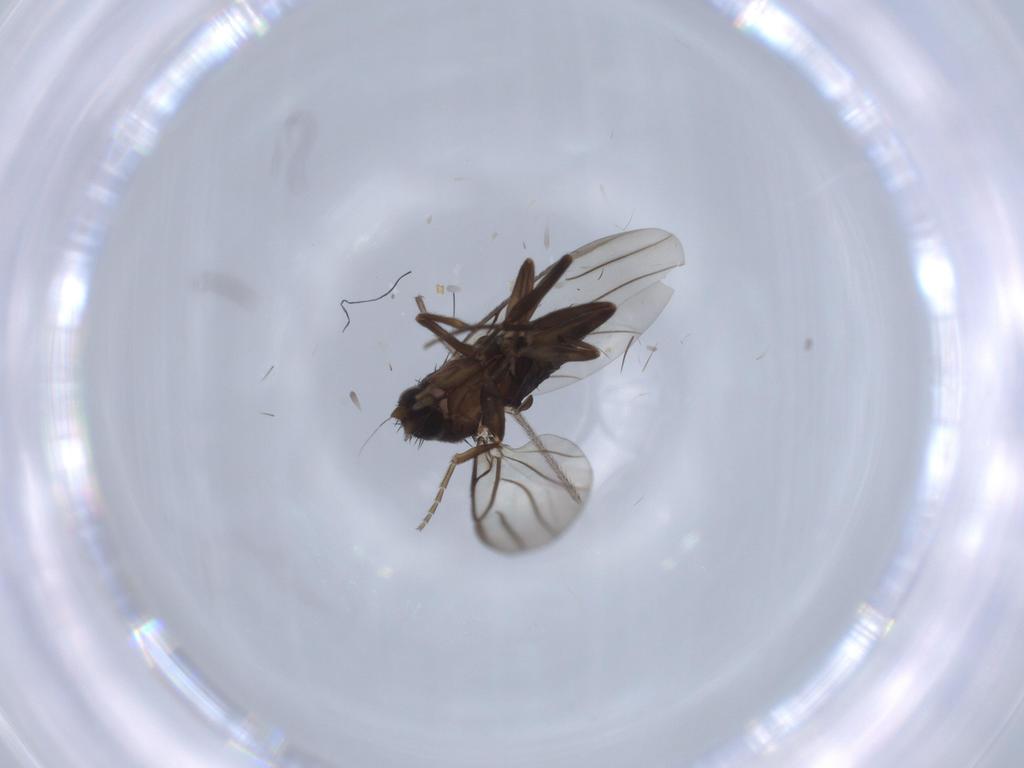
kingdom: Animalia
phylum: Arthropoda
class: Insecta
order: Diptera
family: Limoniidae
